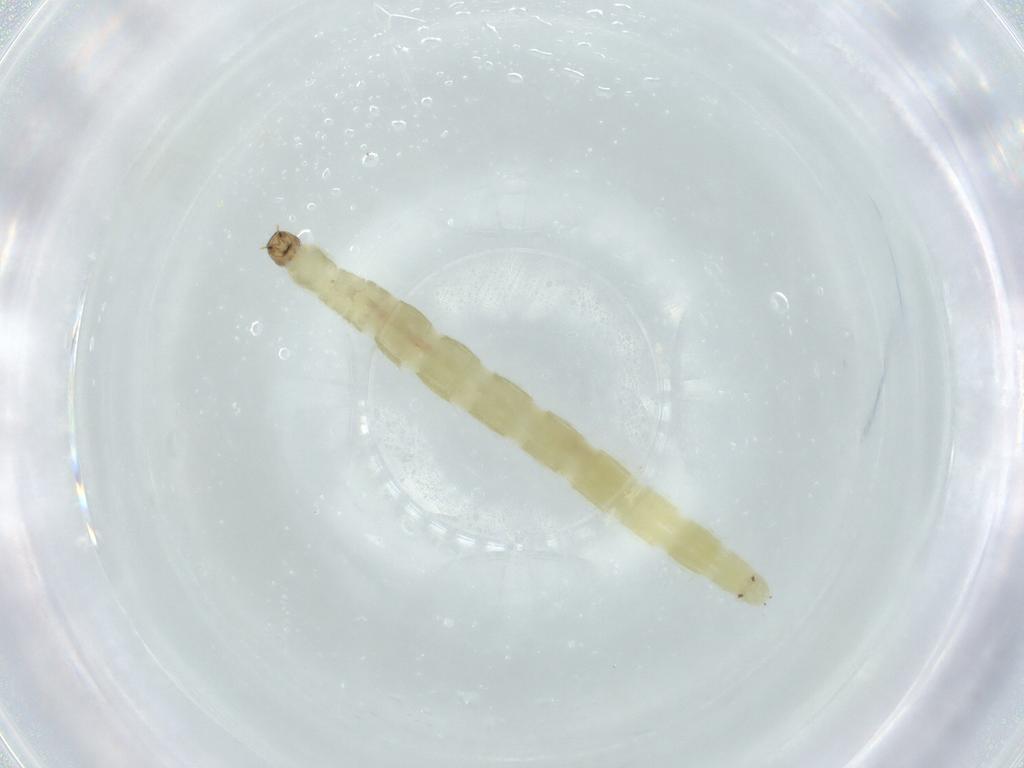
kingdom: Animalia
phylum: Arthropoda
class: Insecta
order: Diptera
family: Chironomidae
